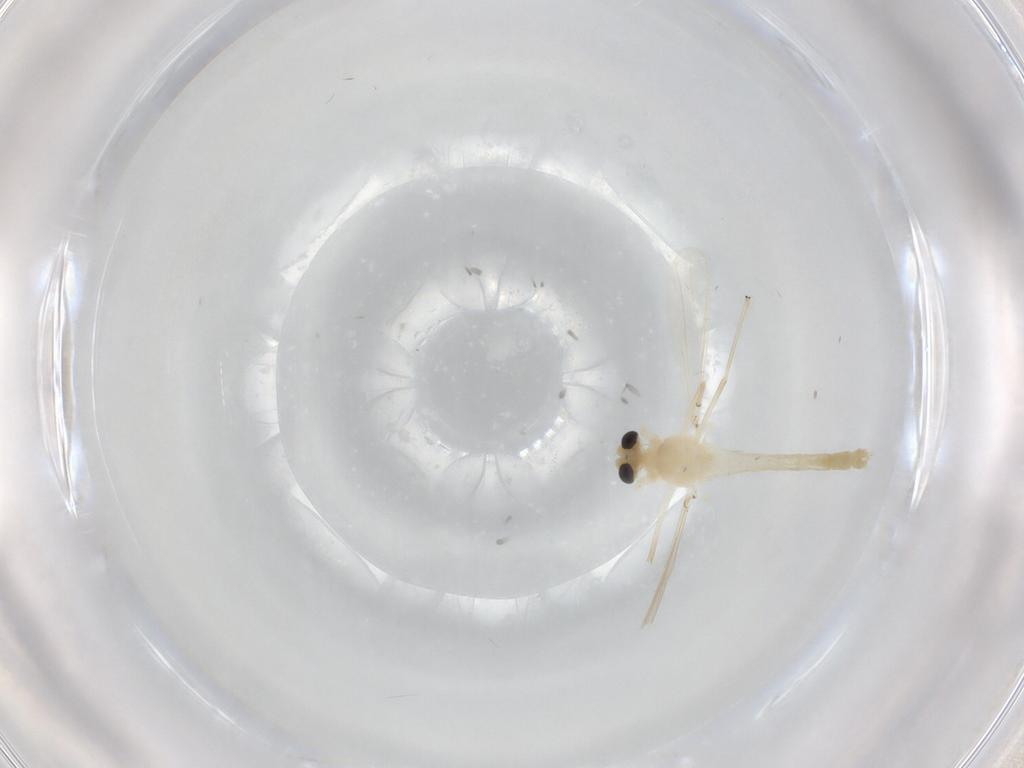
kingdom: Animalia
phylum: Arthropoda
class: Insecta
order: Diptera
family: Chironomidae
